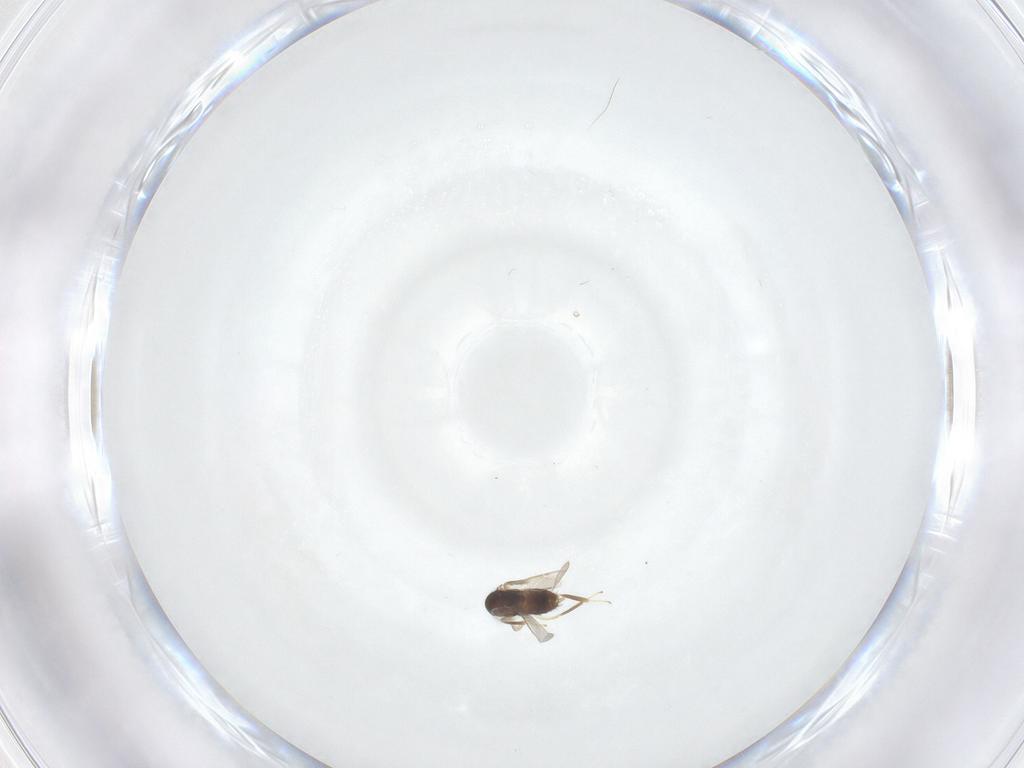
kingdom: Animalia
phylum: Arthropoda
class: Insecta
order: Hymenoptera
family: Aphelinidae
